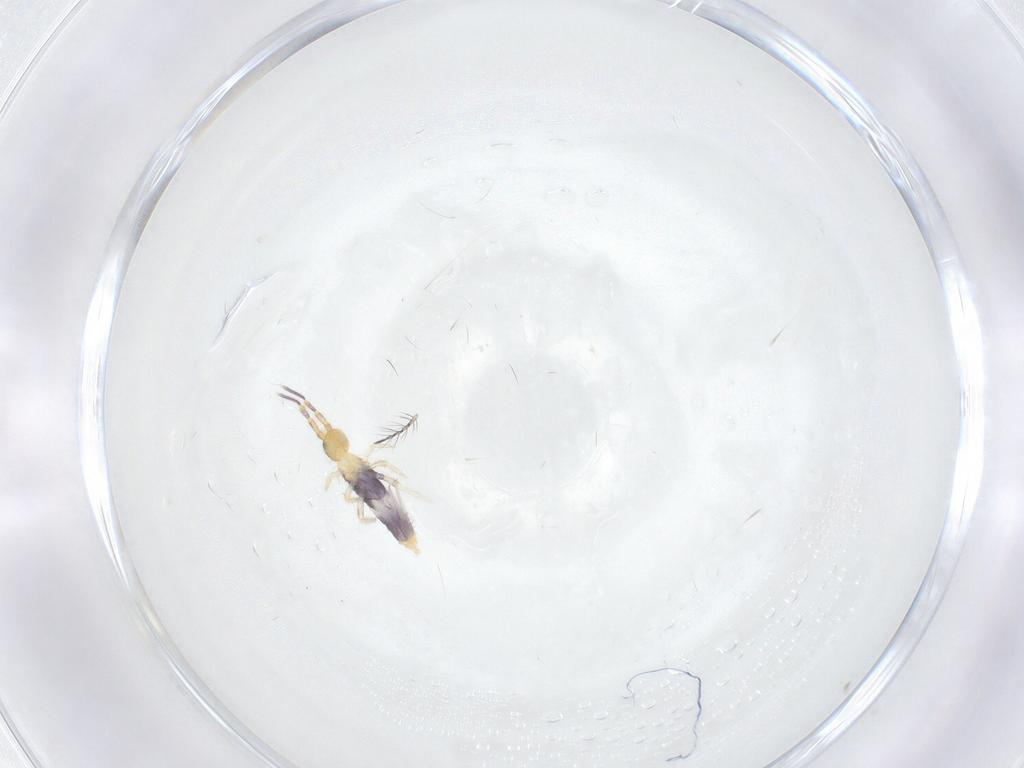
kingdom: Animalia
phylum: Arthropoda
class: Collembola
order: Entomobryomorpha
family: Entomobryidae
